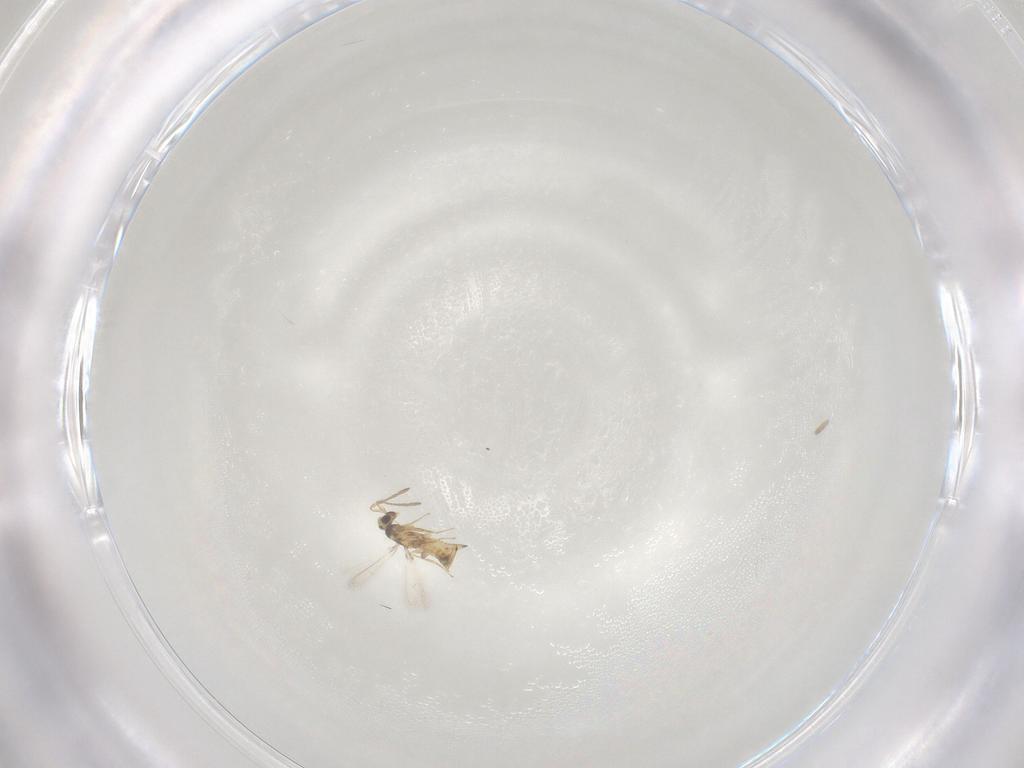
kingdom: Animalia
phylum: Arthropoda
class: Insecta
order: Hymenoptera
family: Mymaridae
